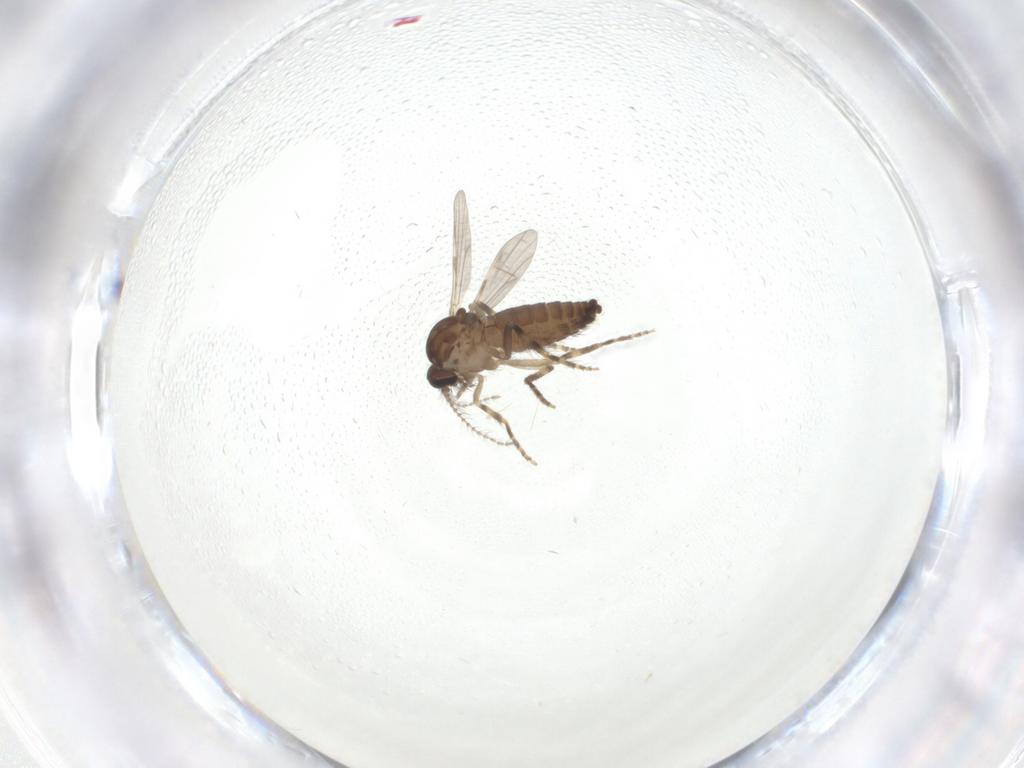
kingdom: Animalia
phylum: Arthropoda
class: Insecta
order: Diptera
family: Ceratopogonidae
